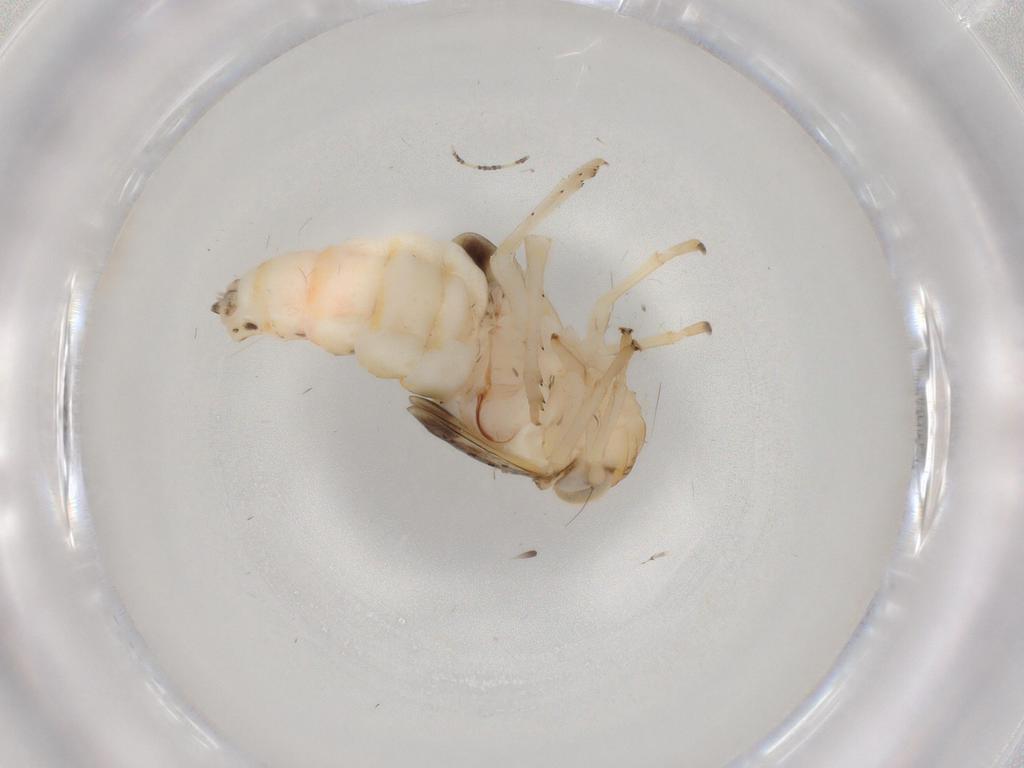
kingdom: Animalia
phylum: Arthropoda
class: Insecta
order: Hemiptera
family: Nogodinidae
